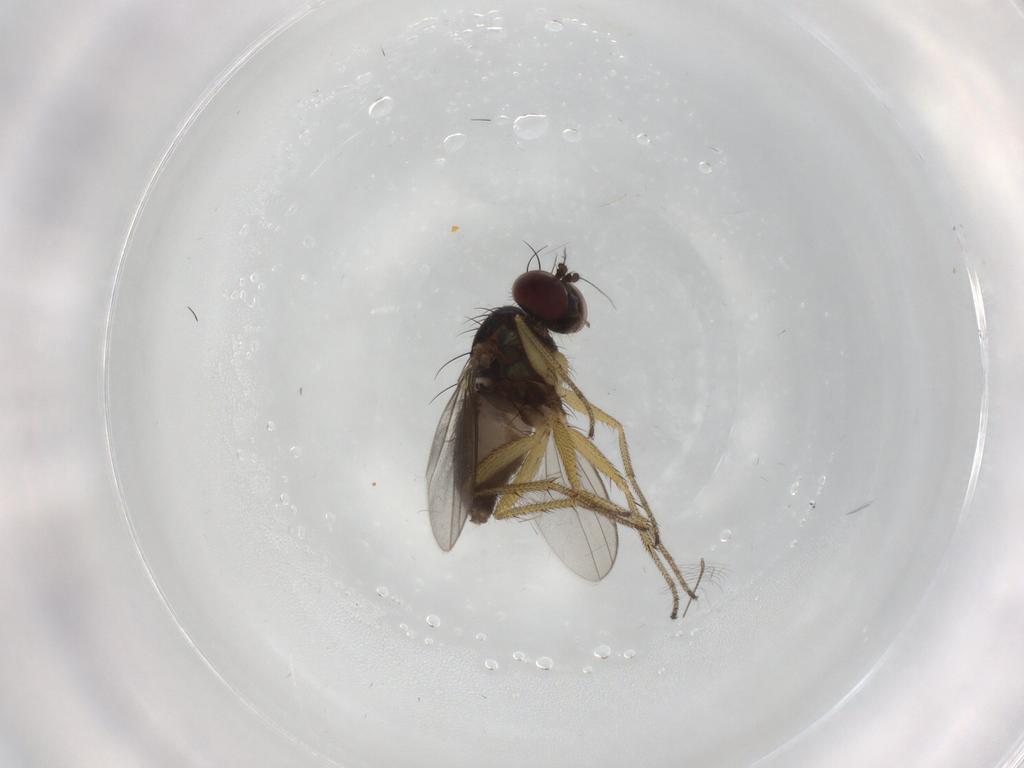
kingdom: Animalia
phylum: Arthropoda
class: Insecta
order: Diptera
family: Dolichopodidae
